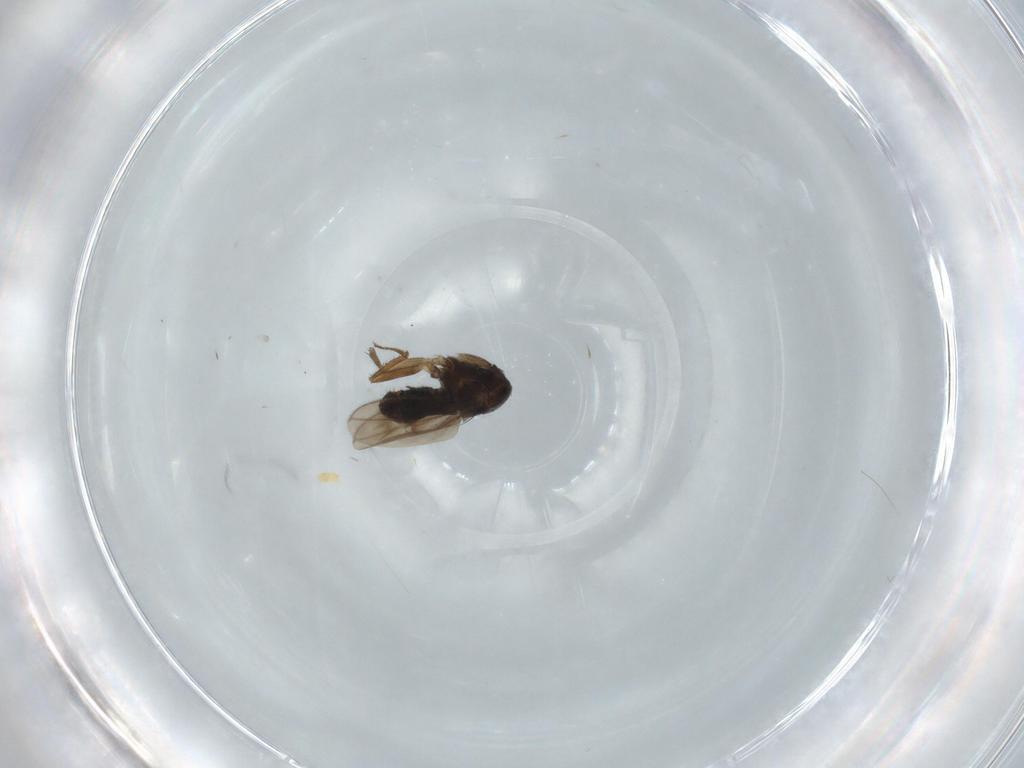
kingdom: Animalia
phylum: Arthropoda
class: Insecta
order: Diptera
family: Sphaeroceridae
